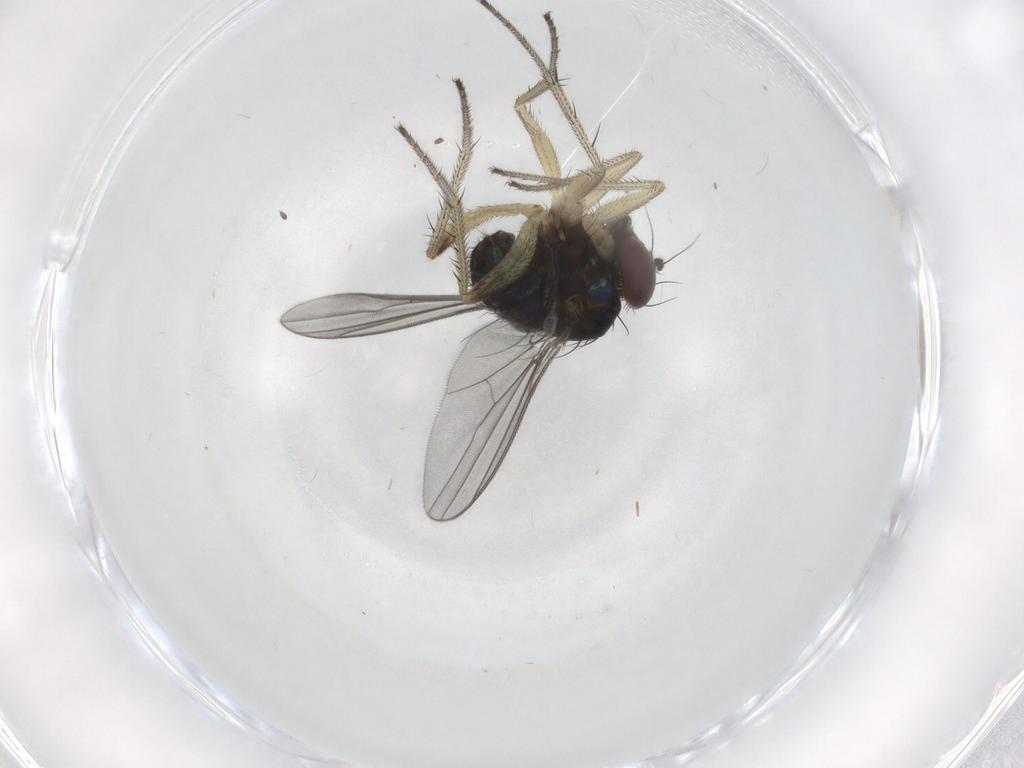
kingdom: Animalia
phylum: Arthropoda
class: Insecta
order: Diptera
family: Dolichopodidae
